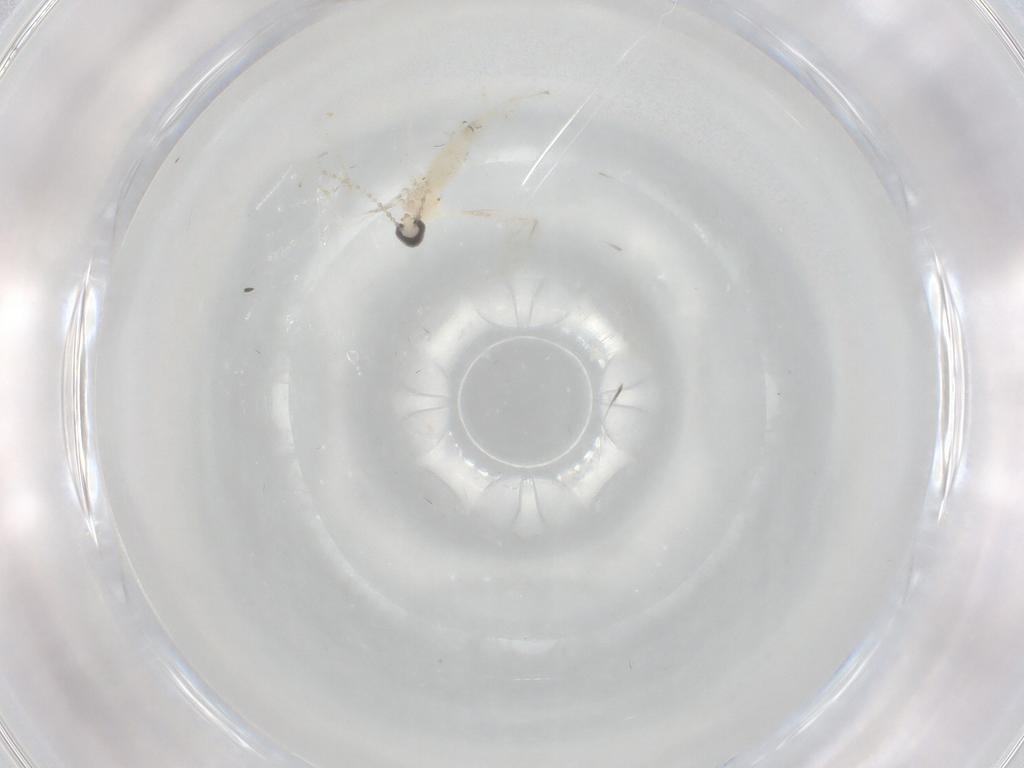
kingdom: Animalia
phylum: Arthropoda
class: Insecta
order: Diptera
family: Cecidomyiidae
